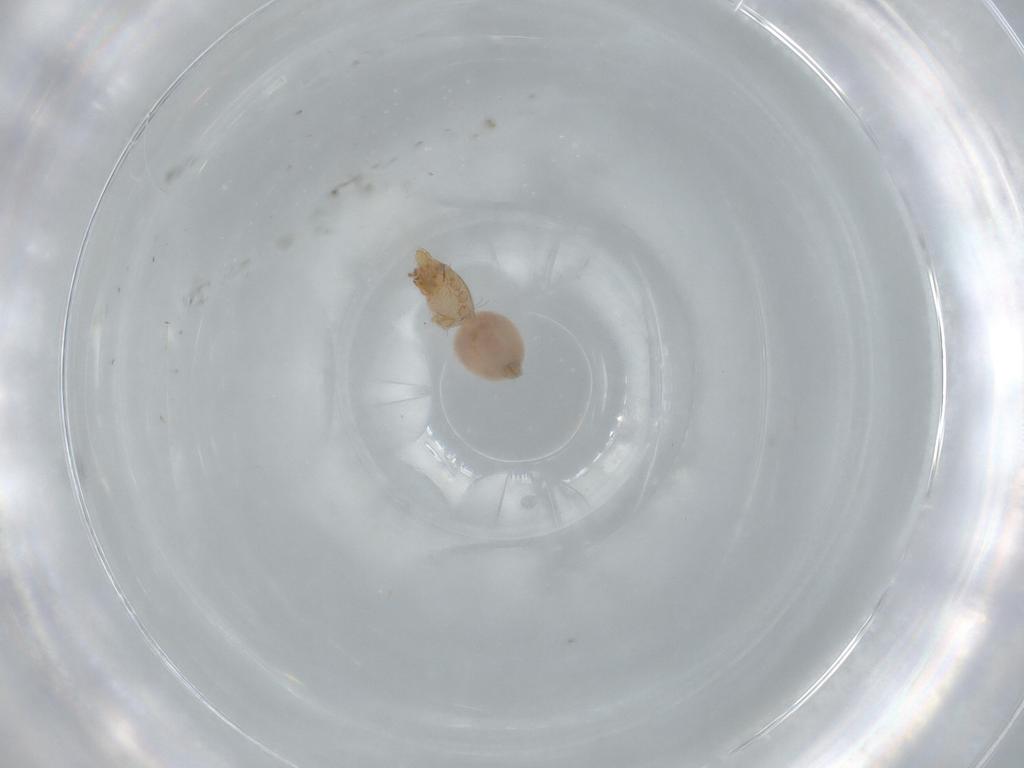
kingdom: Animalia
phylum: Arthropoda
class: Arachnida
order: Araneae
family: Oonopidae
